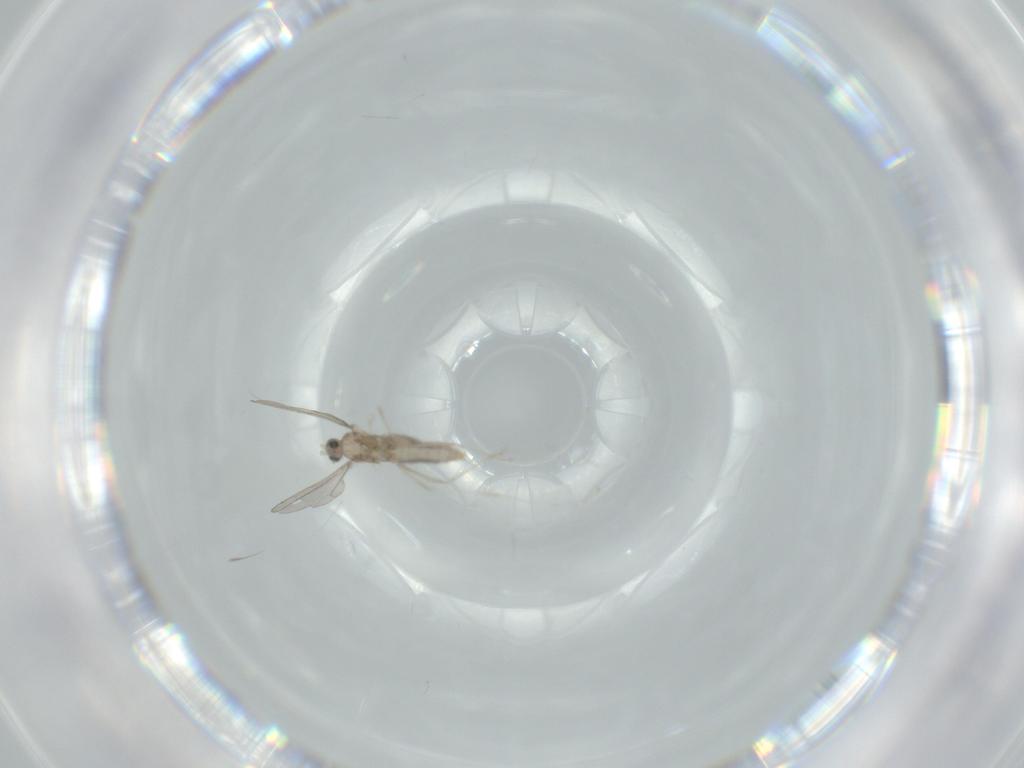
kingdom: Animalia
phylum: Arthropoda
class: Insecta
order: Diptera
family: Cecidomyiidae
